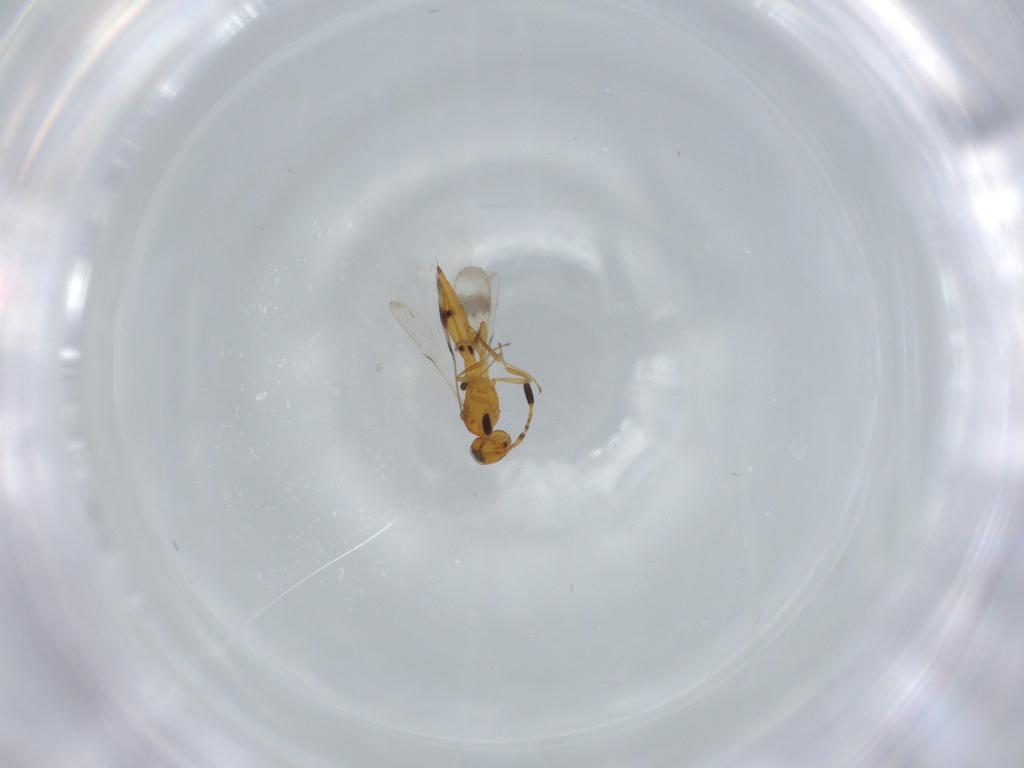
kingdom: Animalia
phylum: Arthropoda
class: Insecta
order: Hymenoptera
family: Scelionidae
